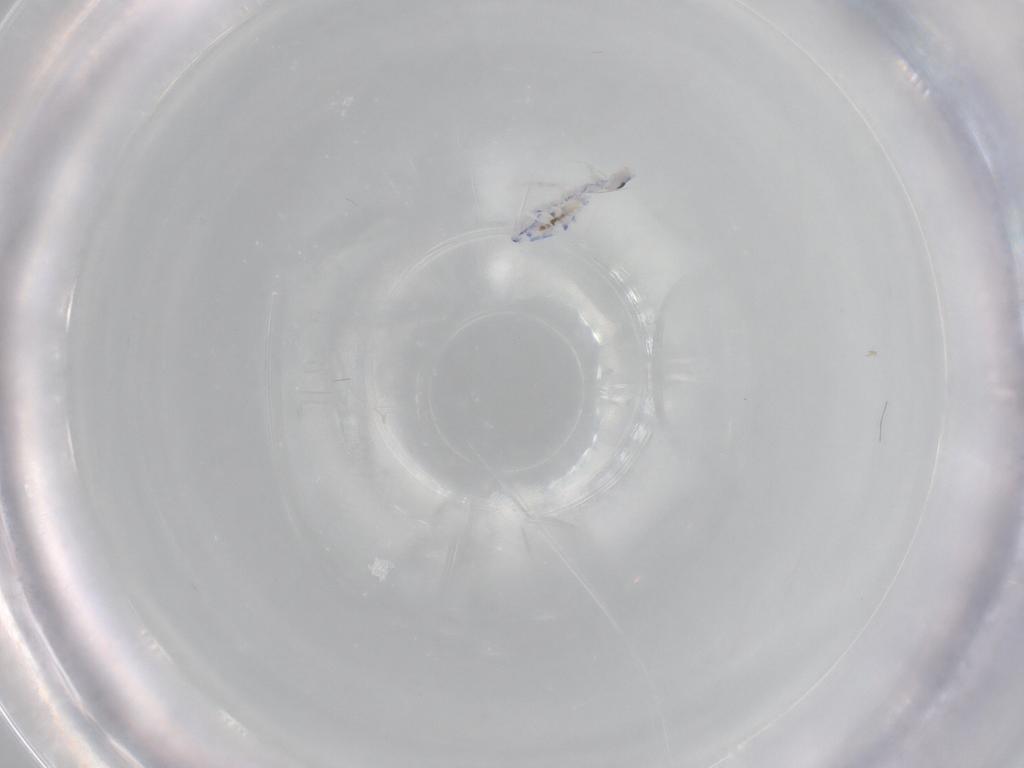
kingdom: Animalia
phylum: Arthropoda
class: Collembola
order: Entomobryomorpha
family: Entomobryidae
